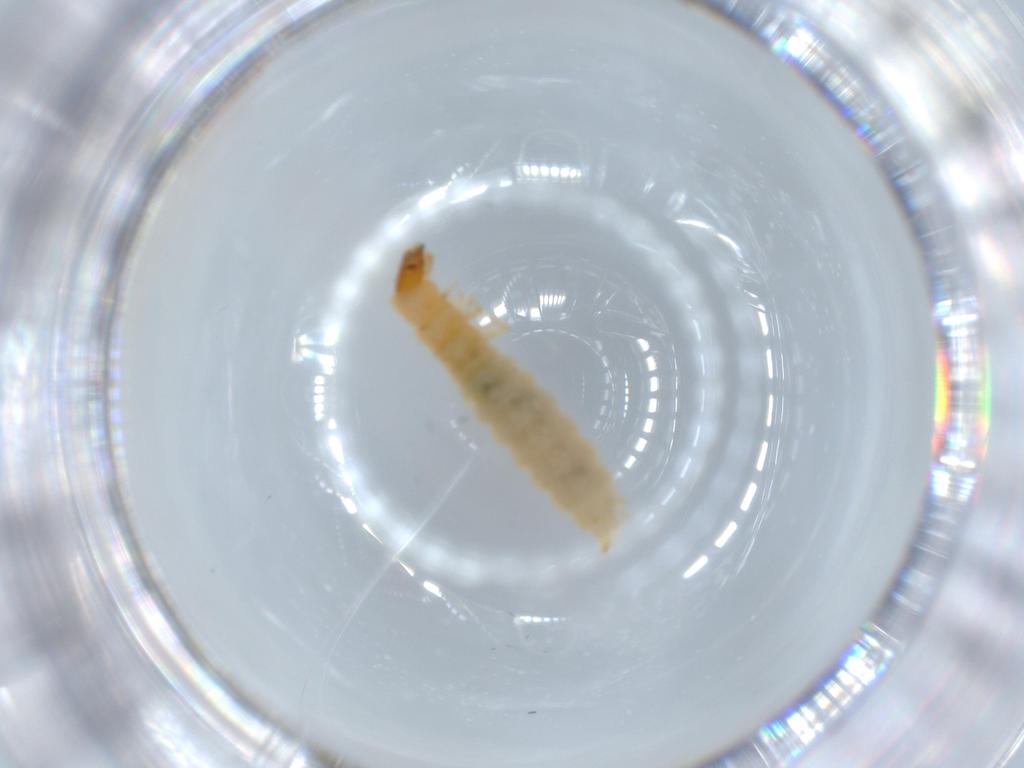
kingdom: Animalia
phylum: Arthropoda
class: Insecta
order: Coleoptera
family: Melyridae
